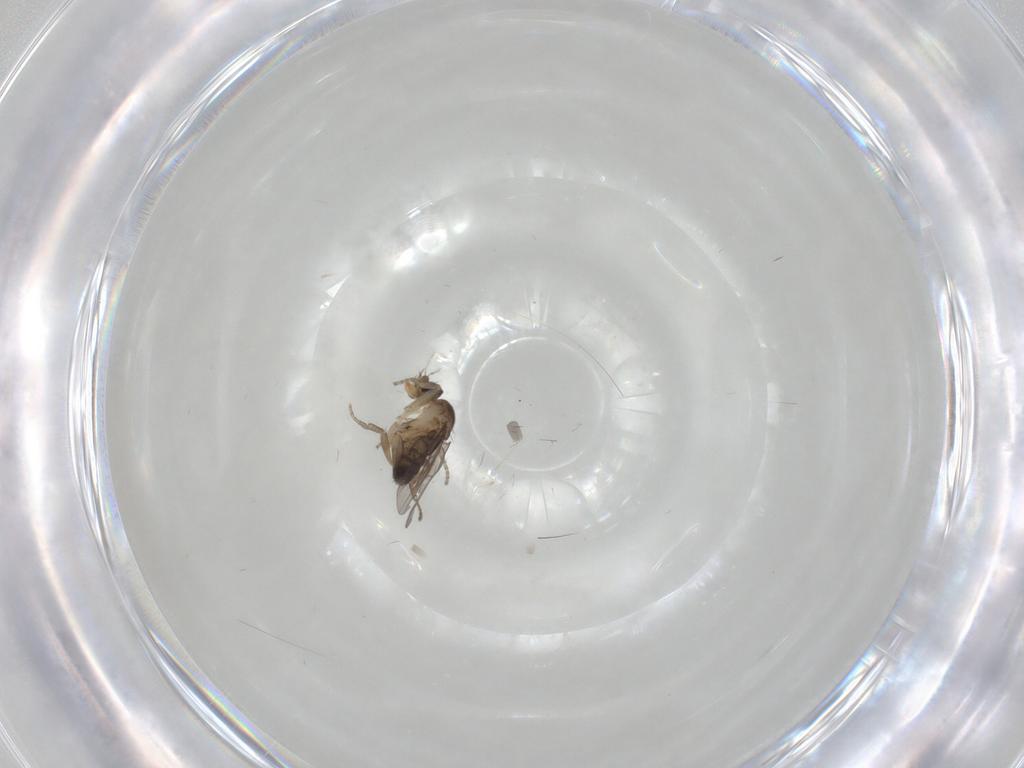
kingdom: Animalia
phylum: Arthropoda
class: Insecta
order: Diptera
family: Phoridae
